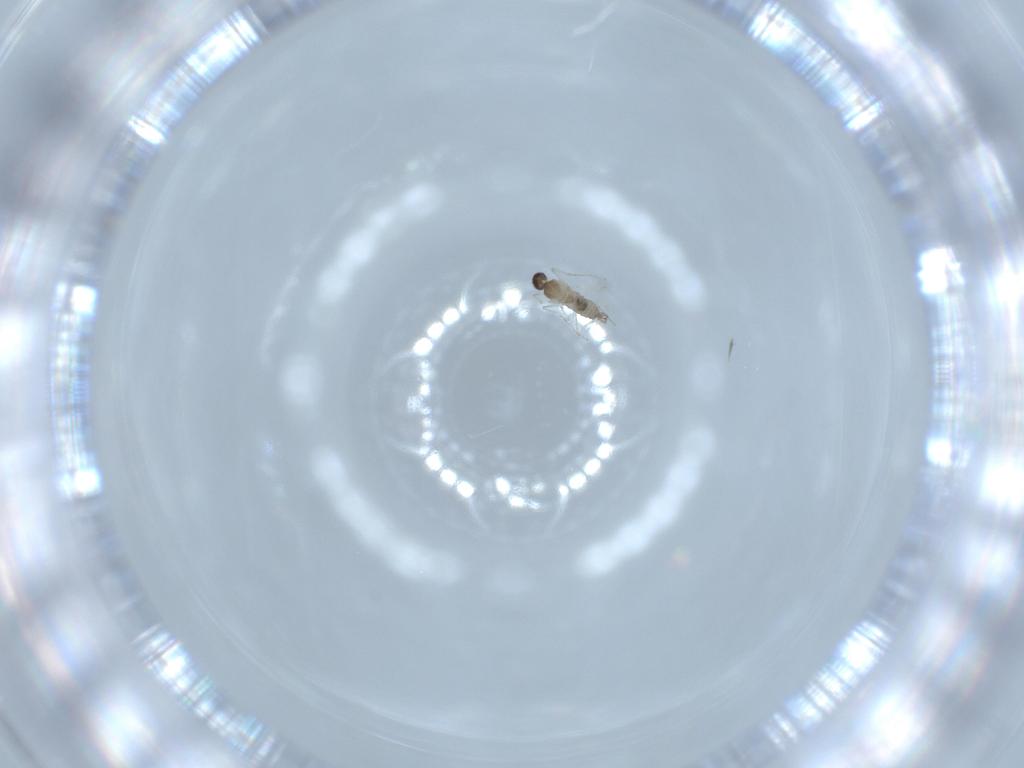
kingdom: Animalia
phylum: Arthropoda
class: Insecta
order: Diptera
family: Cecidomyiidae
